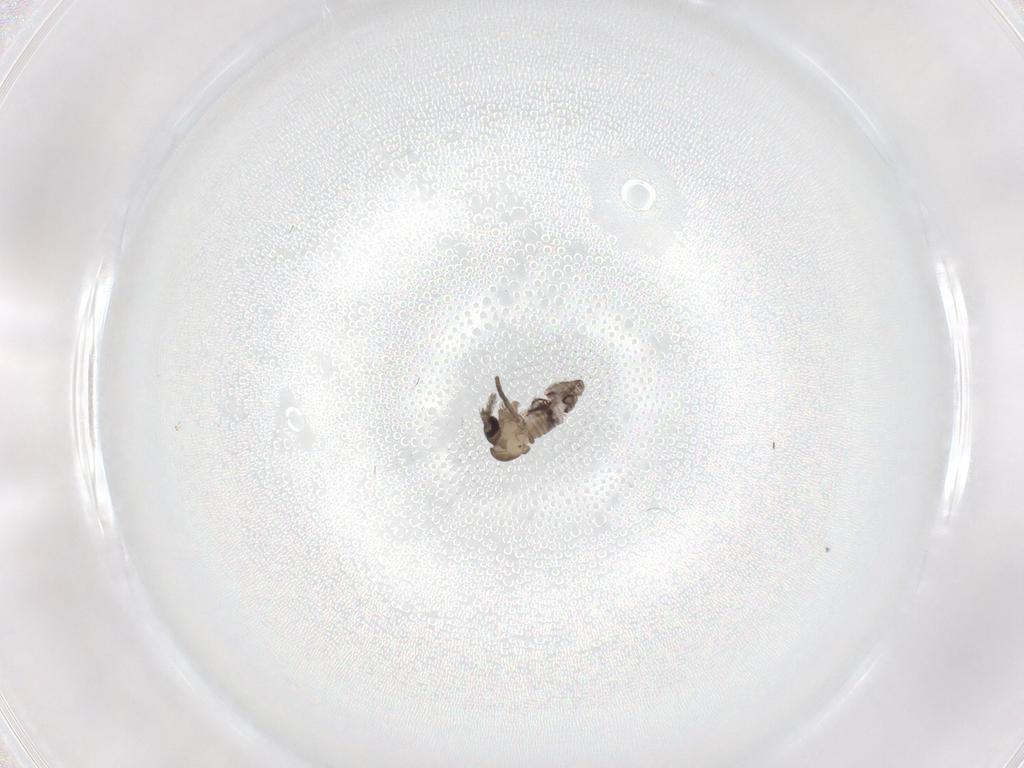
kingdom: Animalia
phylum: Arthropoda
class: Insecta
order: Diptera
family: Psychodidae
